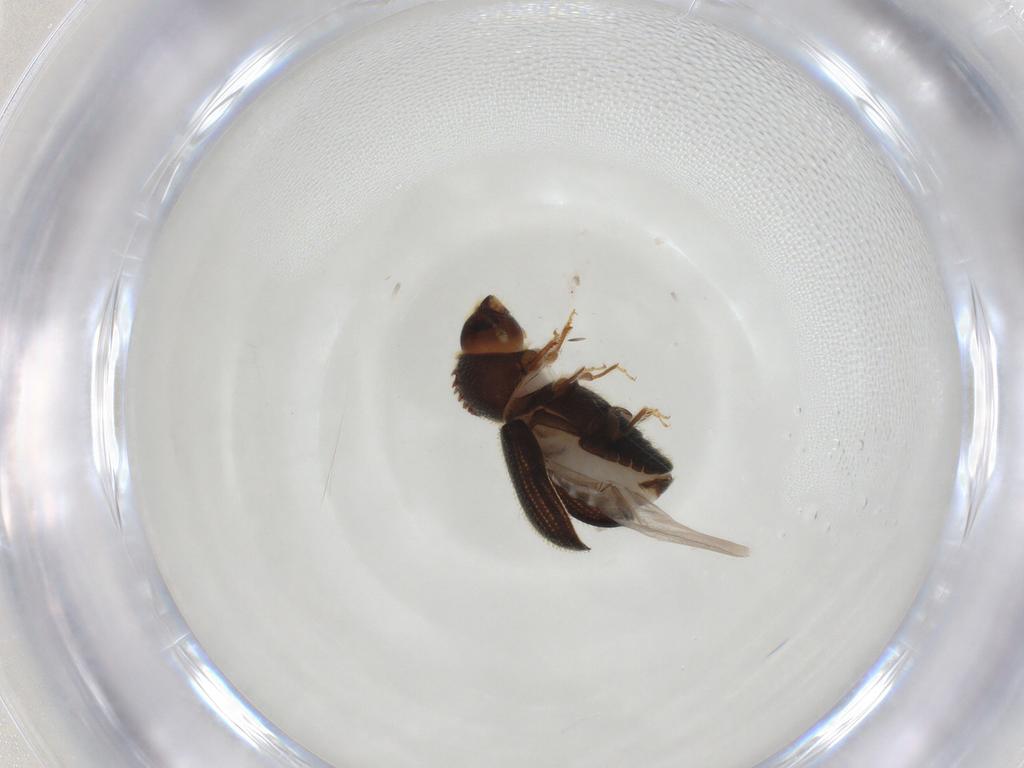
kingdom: Animalia
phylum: Arthropoda
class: Insecta
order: Coleoptera
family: Curculionidae
